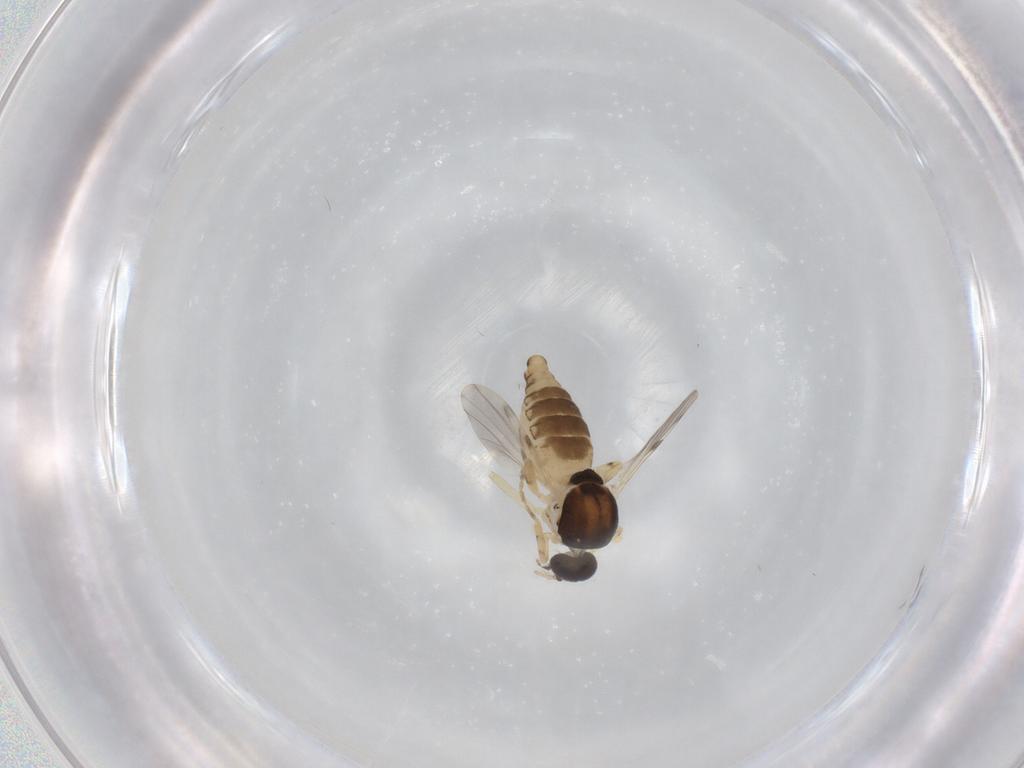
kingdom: Animalia
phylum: Arthropoda
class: Insecta
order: Diptera
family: Ceratopogonidae
